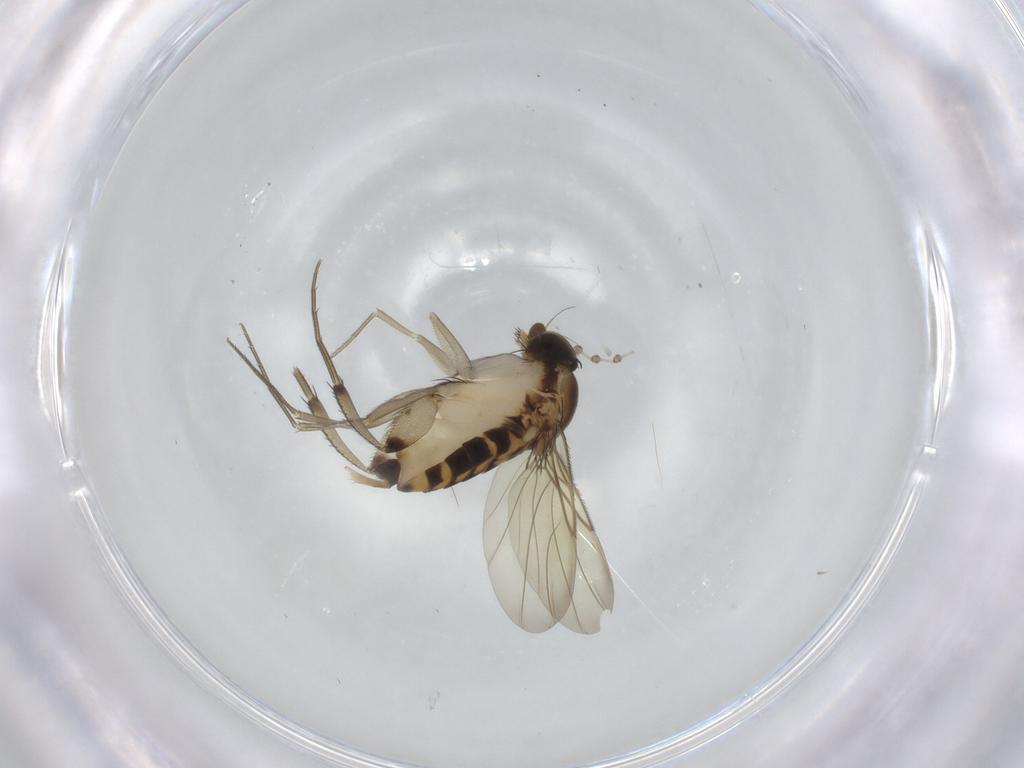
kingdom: Animalia
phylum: Arthropoda
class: Insecta
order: Diptera
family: Phoridae
